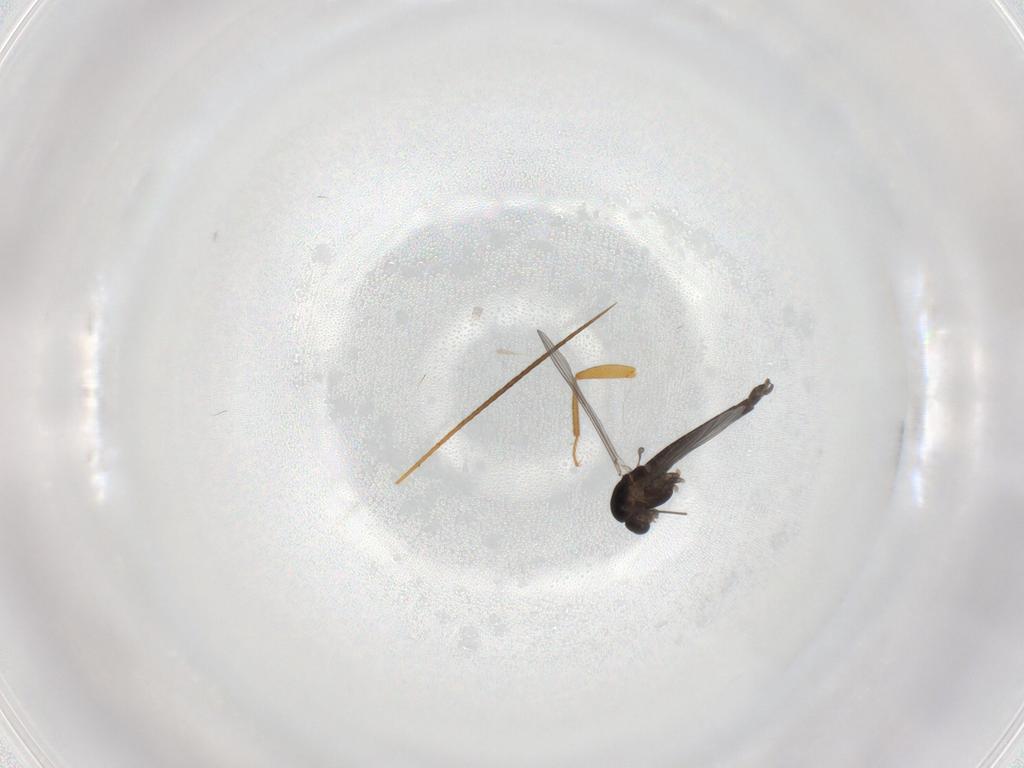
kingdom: Animalia
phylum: Arthropoda
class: Insecta
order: Diptera
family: Chironomidae
